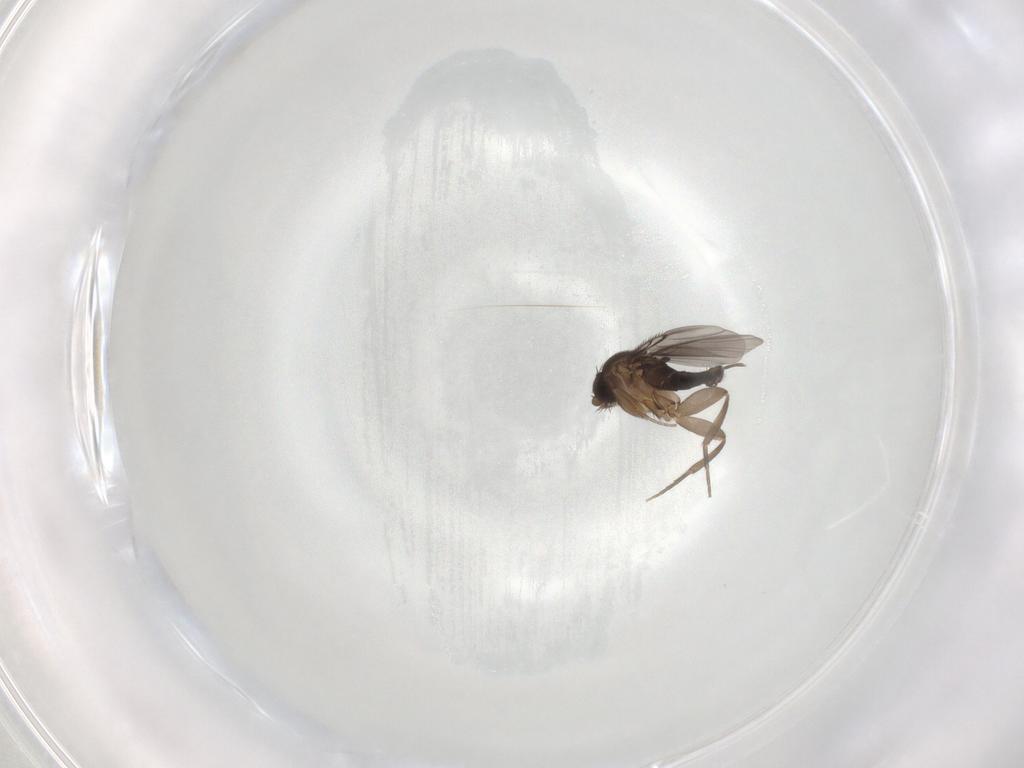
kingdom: Animalia
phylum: Arthropoda
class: Insecta
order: Diptera
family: Phoridae
